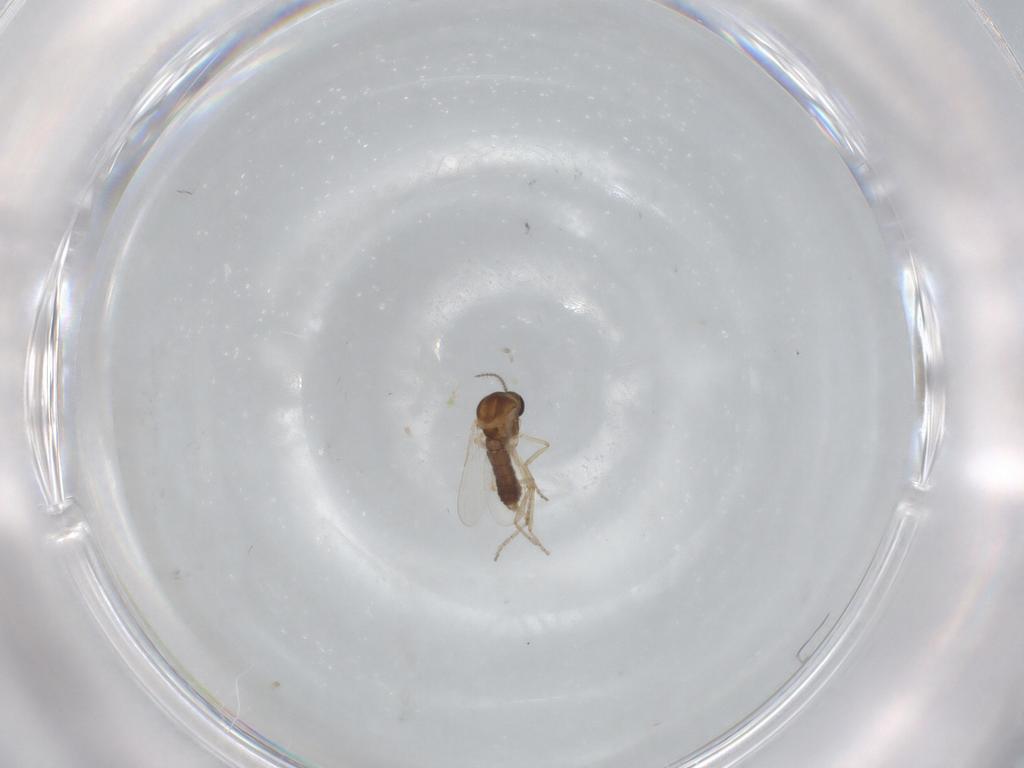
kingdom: Animalia
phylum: Arthropoda
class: Insecta
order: Diptera
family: Ceratopogonidae
